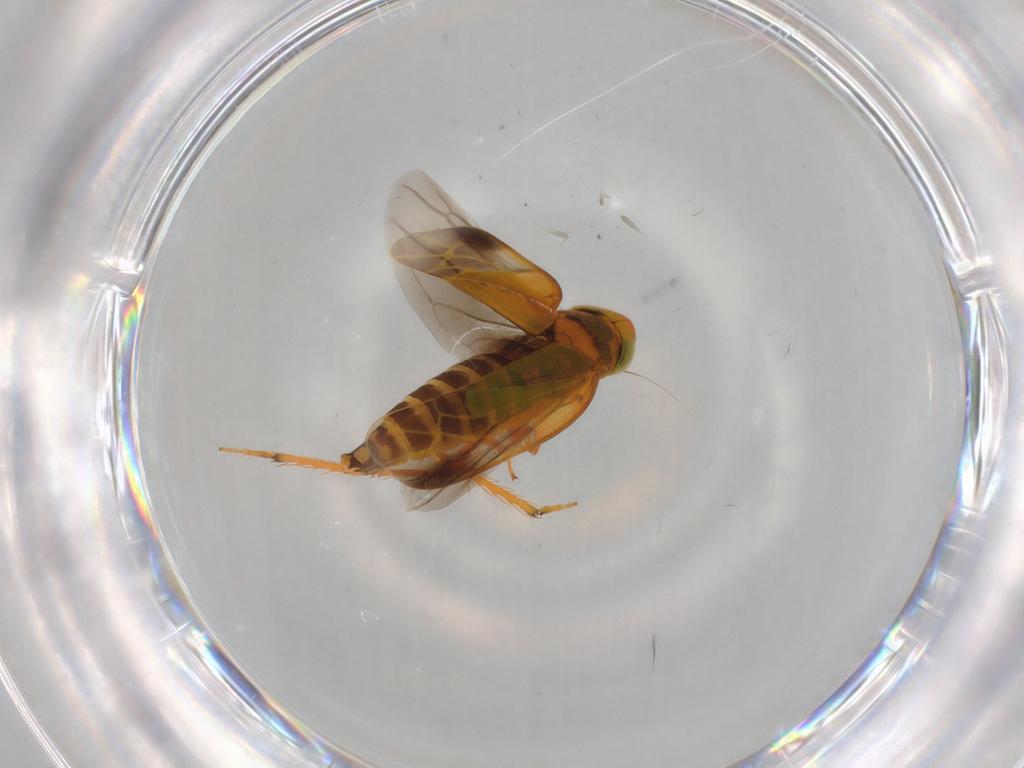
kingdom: Animalia
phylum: Arthropoda
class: Insecta
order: Hemiptera
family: Cicadellidae
